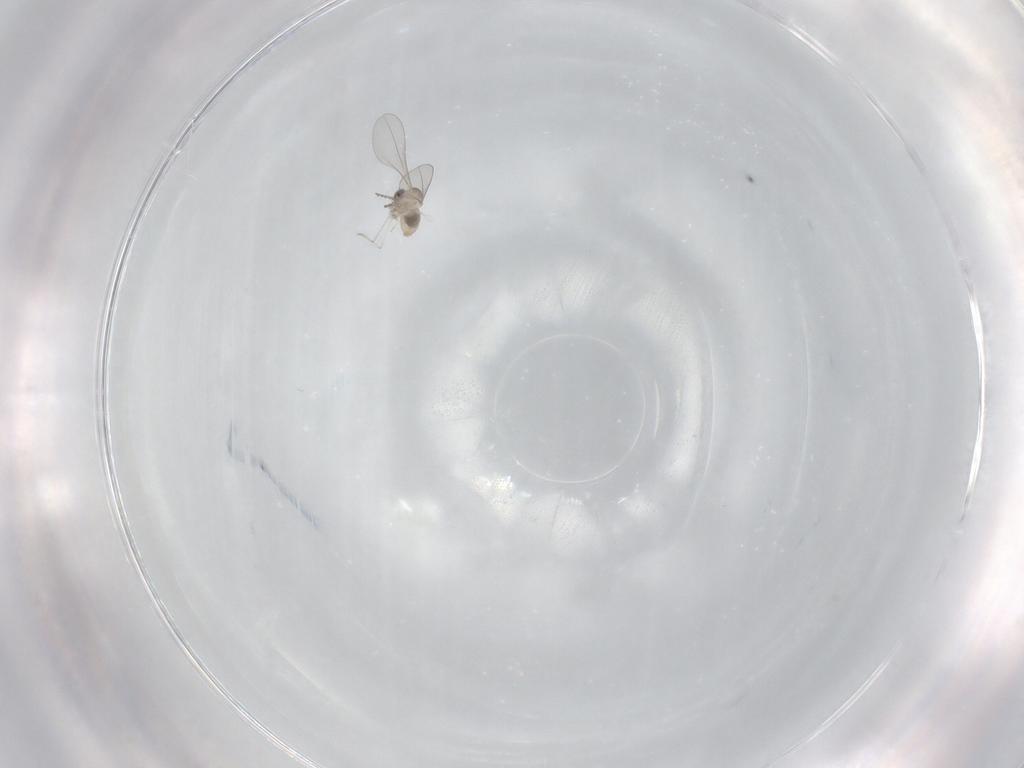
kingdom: Animalia
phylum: Arthropoda
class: Insecta
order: Diptera
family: Cecidomyiidae
